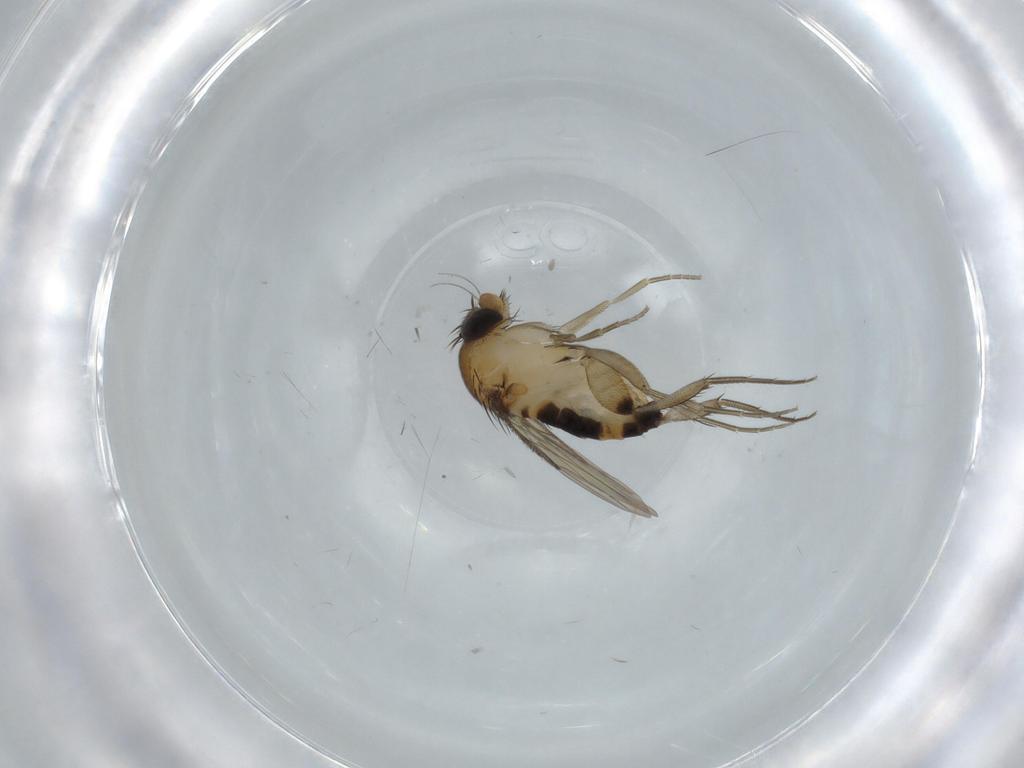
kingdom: Animalia
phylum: Arthropoda
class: Insecta
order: Diptera
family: Phoridae
